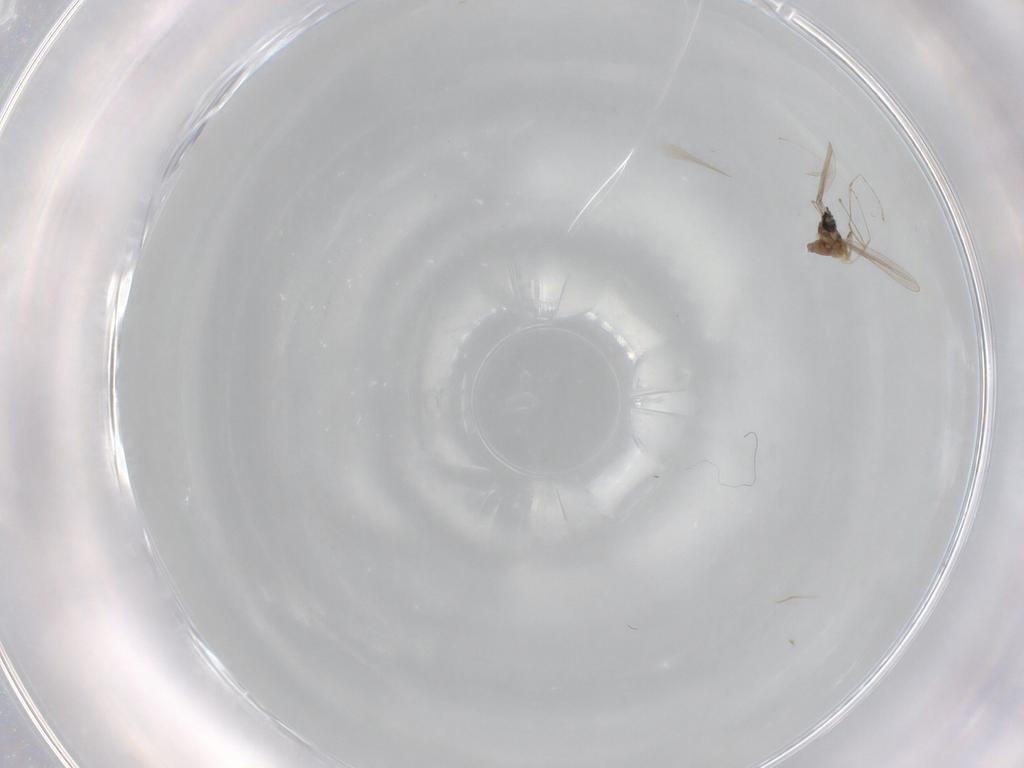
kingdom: Animalia
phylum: Arthropoda
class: Insecta
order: Diptera
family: Cecidomyiidae
